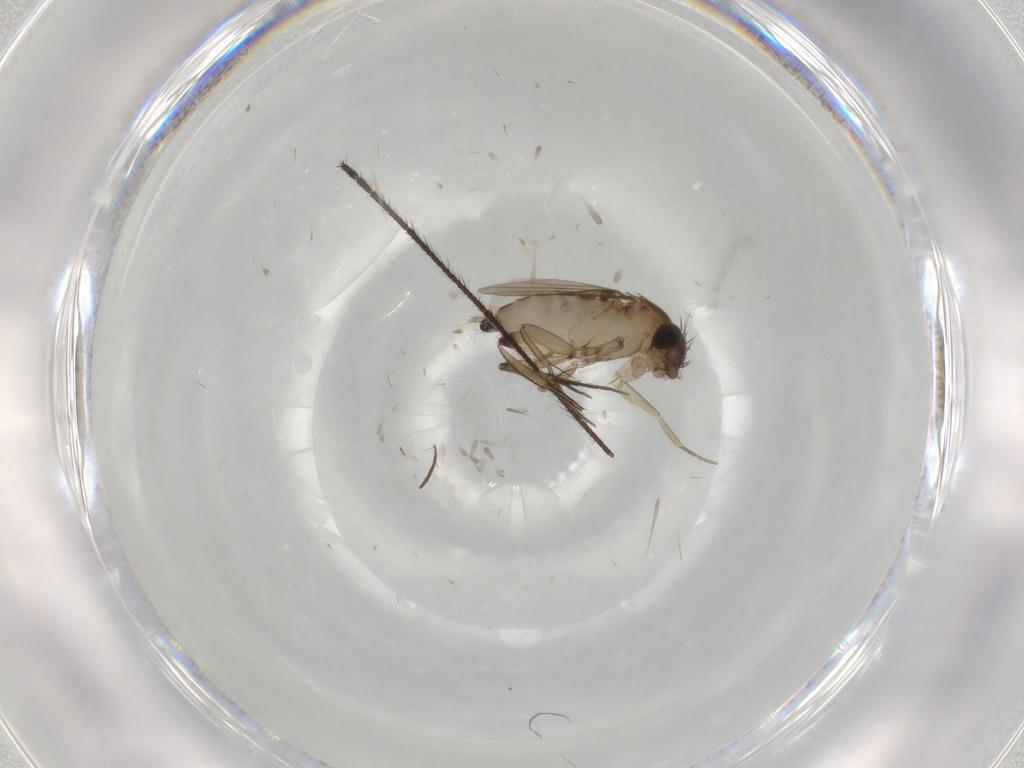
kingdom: Animalia
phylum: Arthropoda
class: Insecta
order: Diptera
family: Phoridae
